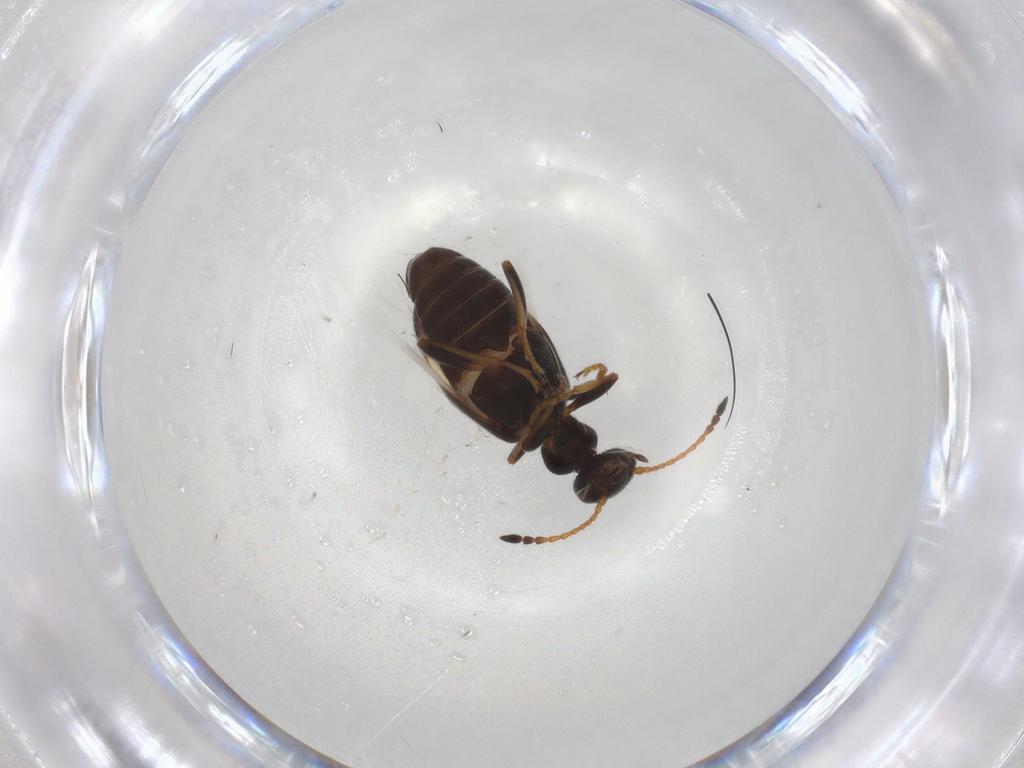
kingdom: Animalia
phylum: Arthropoda
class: Insecta
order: Coleoptera
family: Anthicidae
